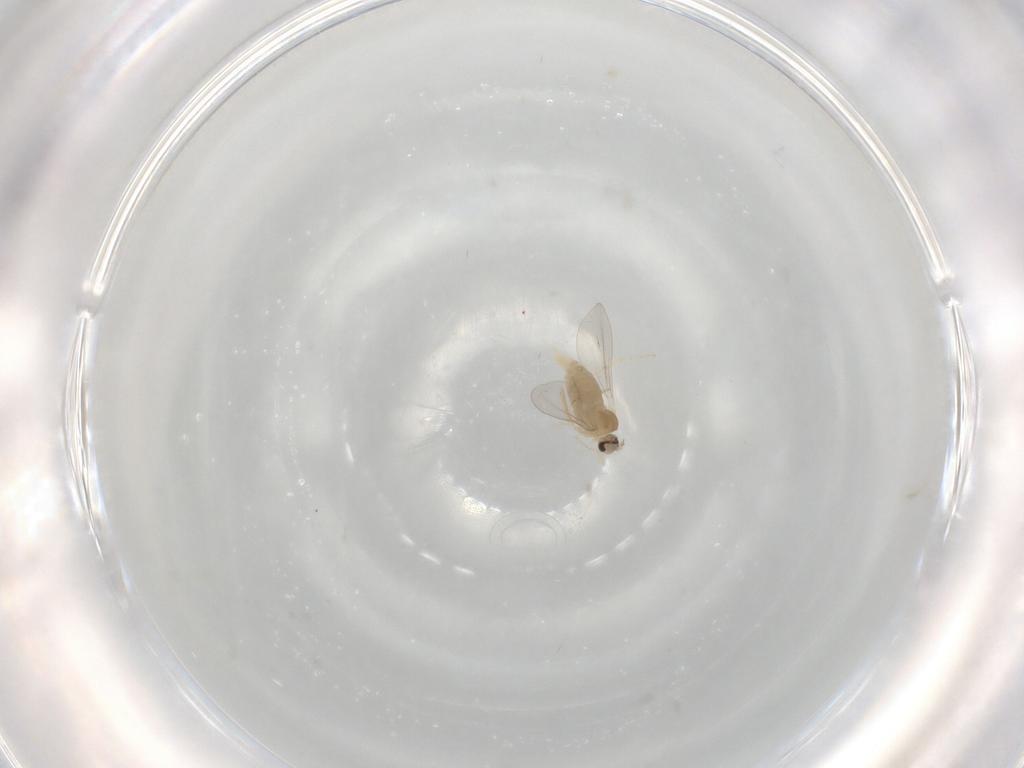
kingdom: Animalia
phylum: Arthropoda
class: Insecta
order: Diptera
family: Cecidomyiidae
